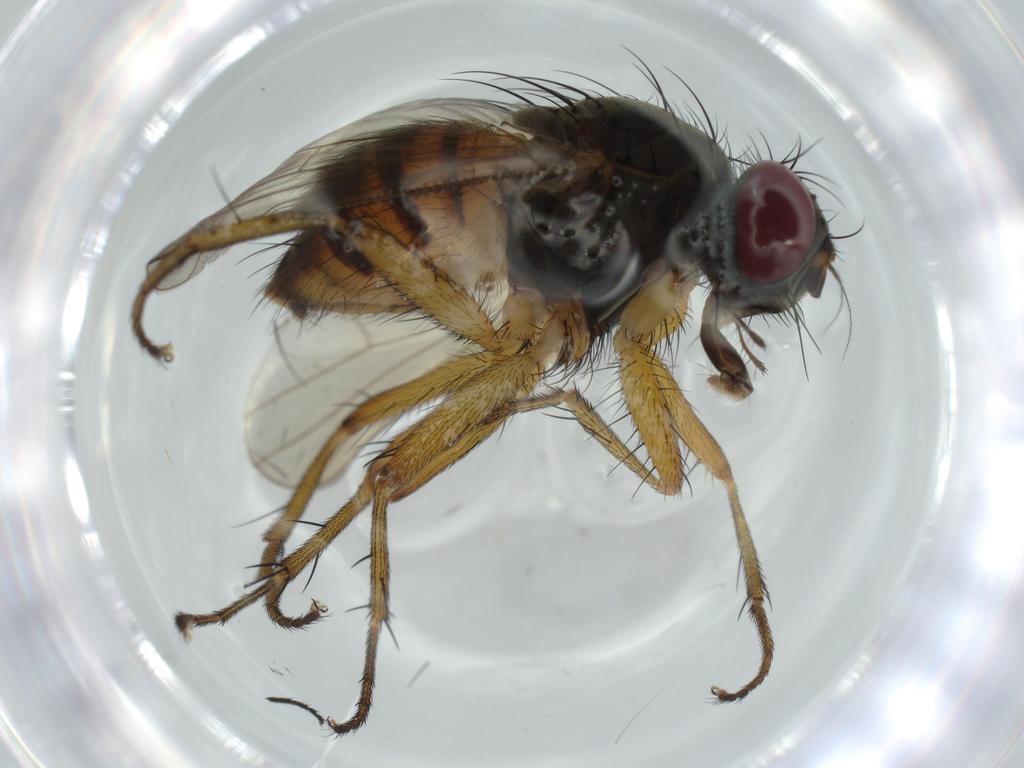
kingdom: Animalia
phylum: Arthropoda
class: Insecta
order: Diptera
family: Muscidae
